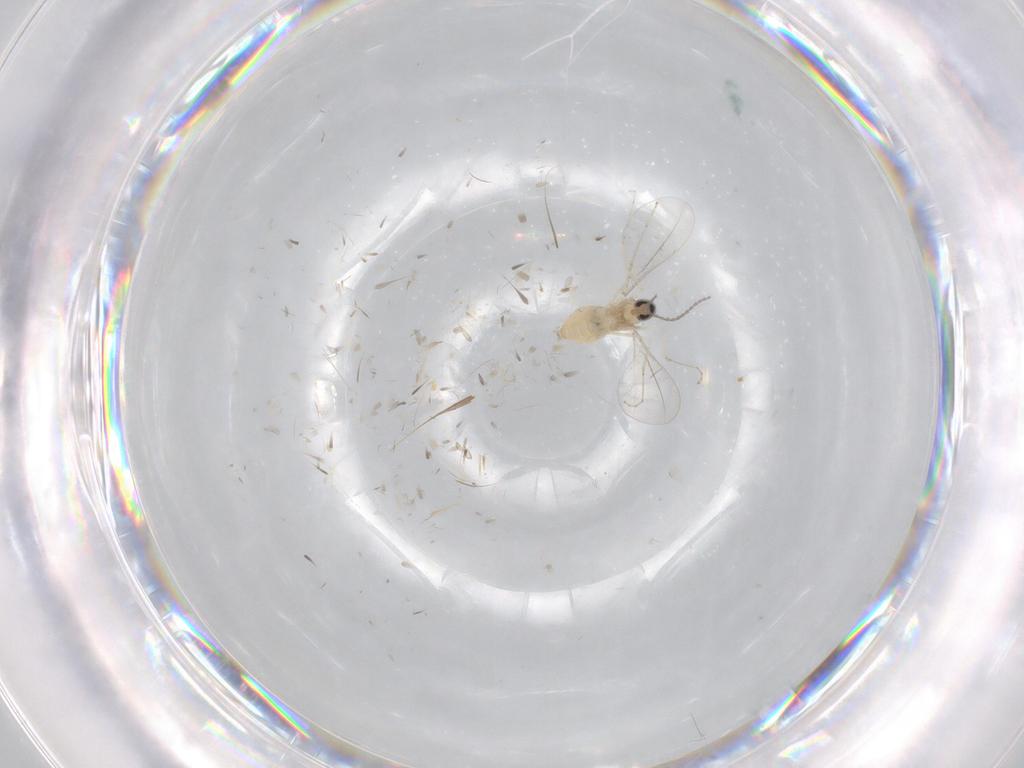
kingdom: Animalia
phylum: Arthropoda
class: Insecta
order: Diptera
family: Cecidomyiidae
